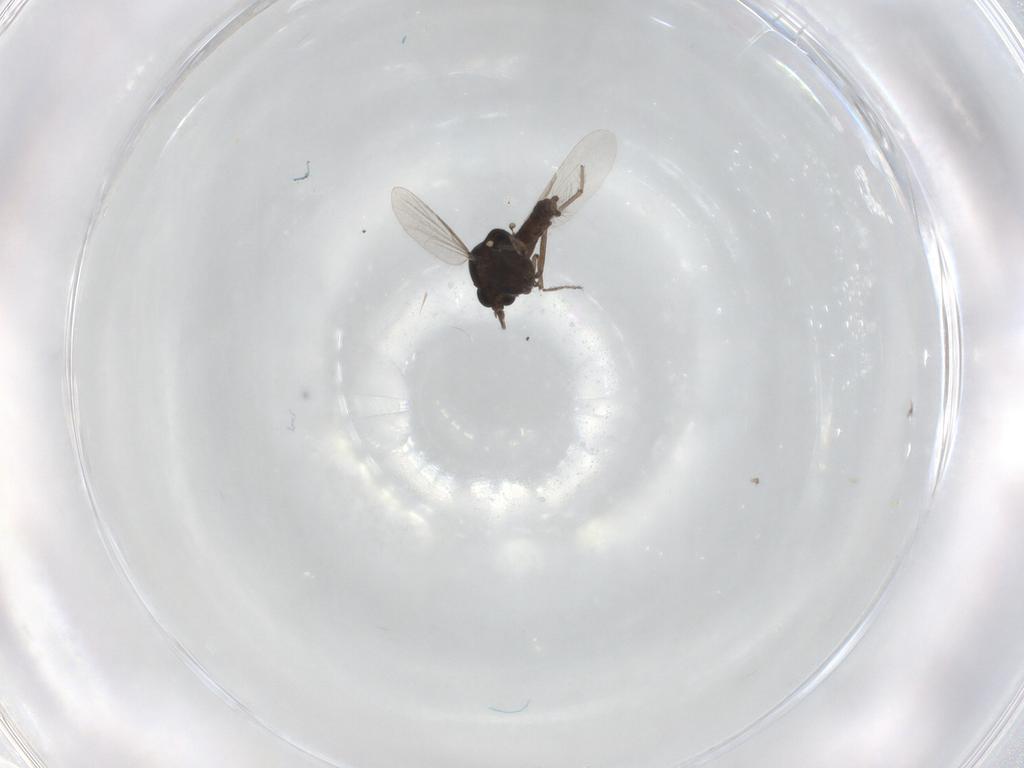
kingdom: Animalia
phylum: Arthropoda
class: Insecta
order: Diptera
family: Ceratopogonidae
